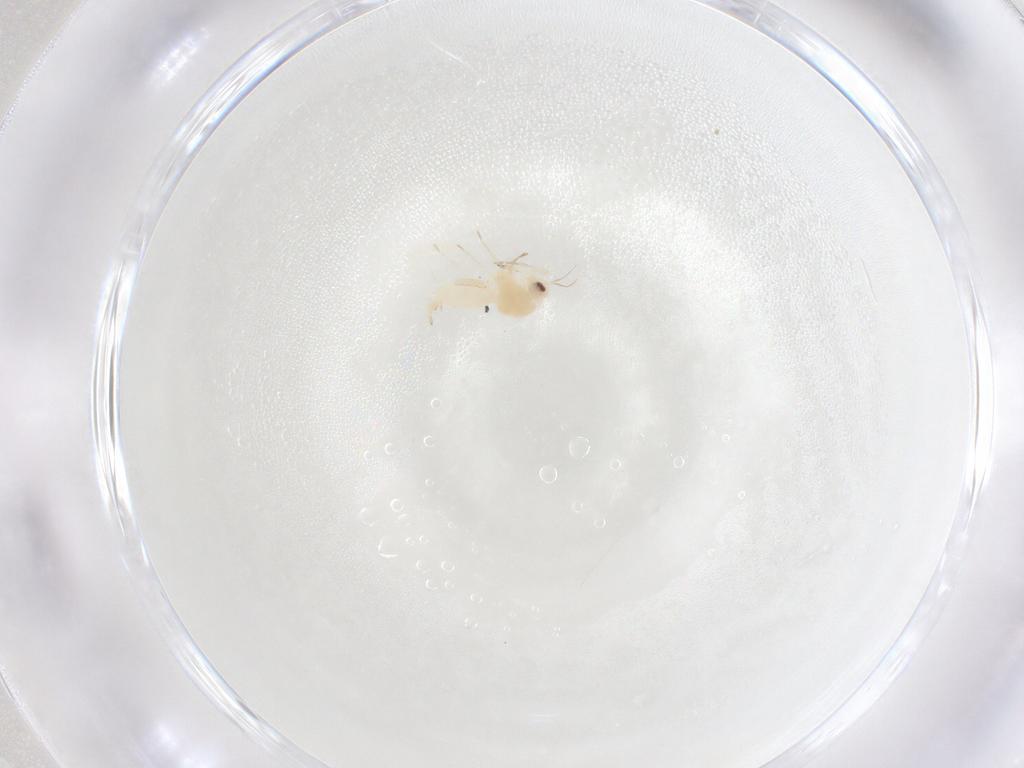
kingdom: Animalia
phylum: Arthropoda
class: Insecta
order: Hemiptera
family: Aleyrodidae
